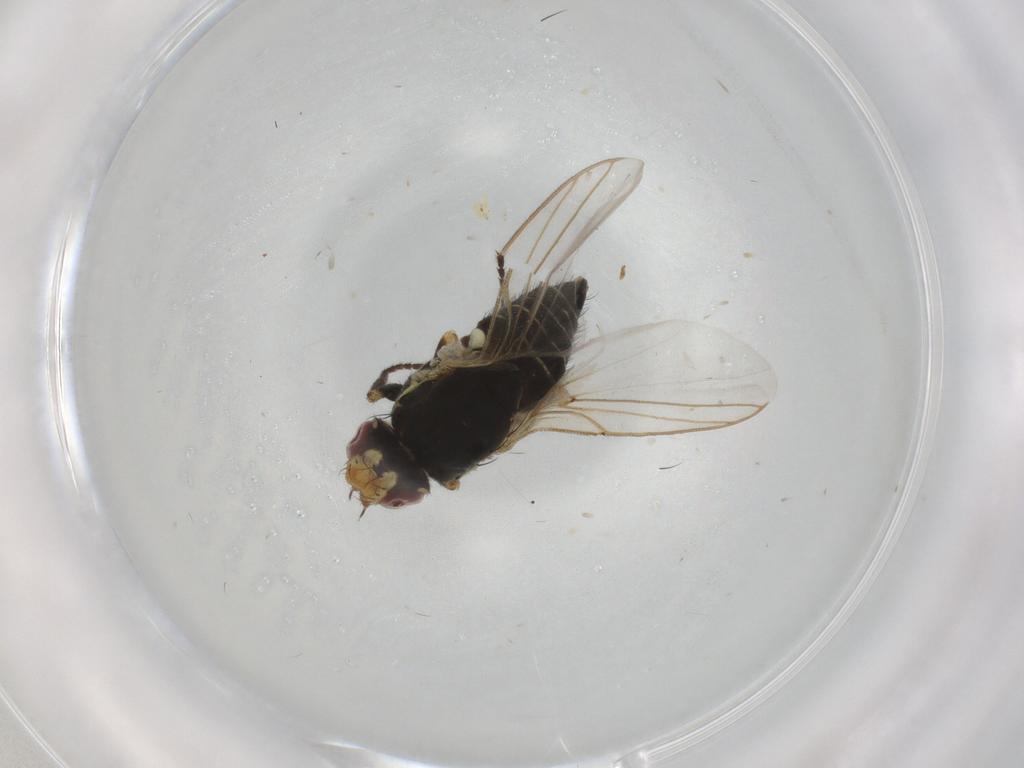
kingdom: Animalia
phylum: Arthropoda
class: Insecta
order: Diptera
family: Agromyzidae
